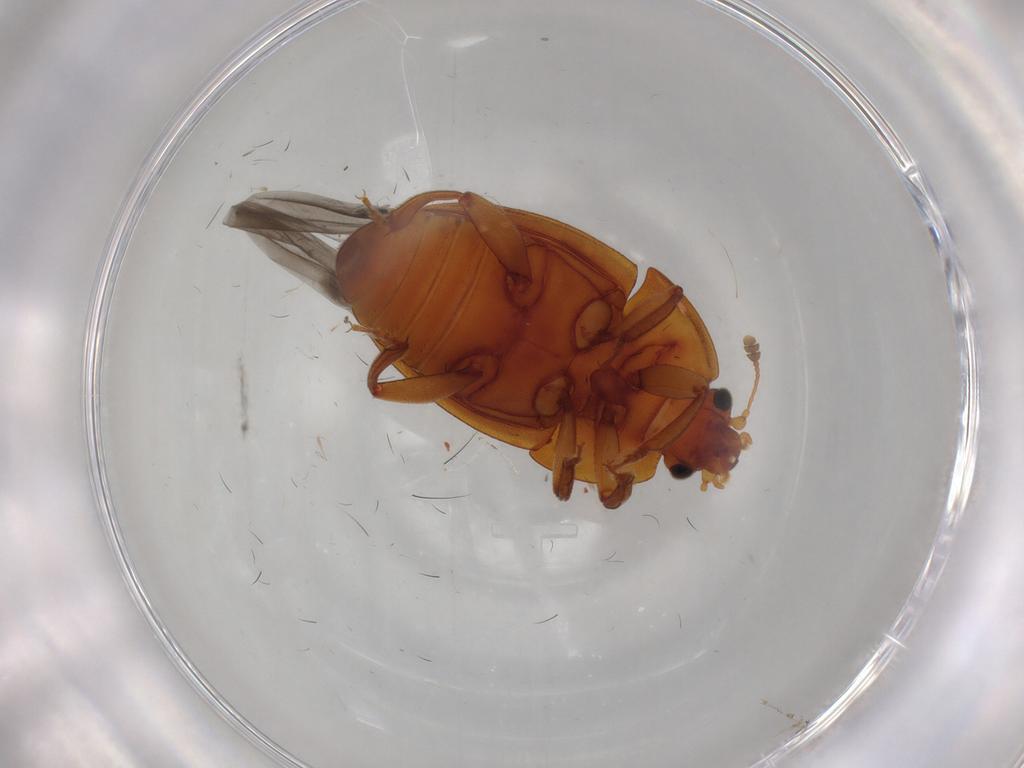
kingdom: Animalia
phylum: Arthropoda
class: Insecta
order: Coleoptera
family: Nitidulidae
